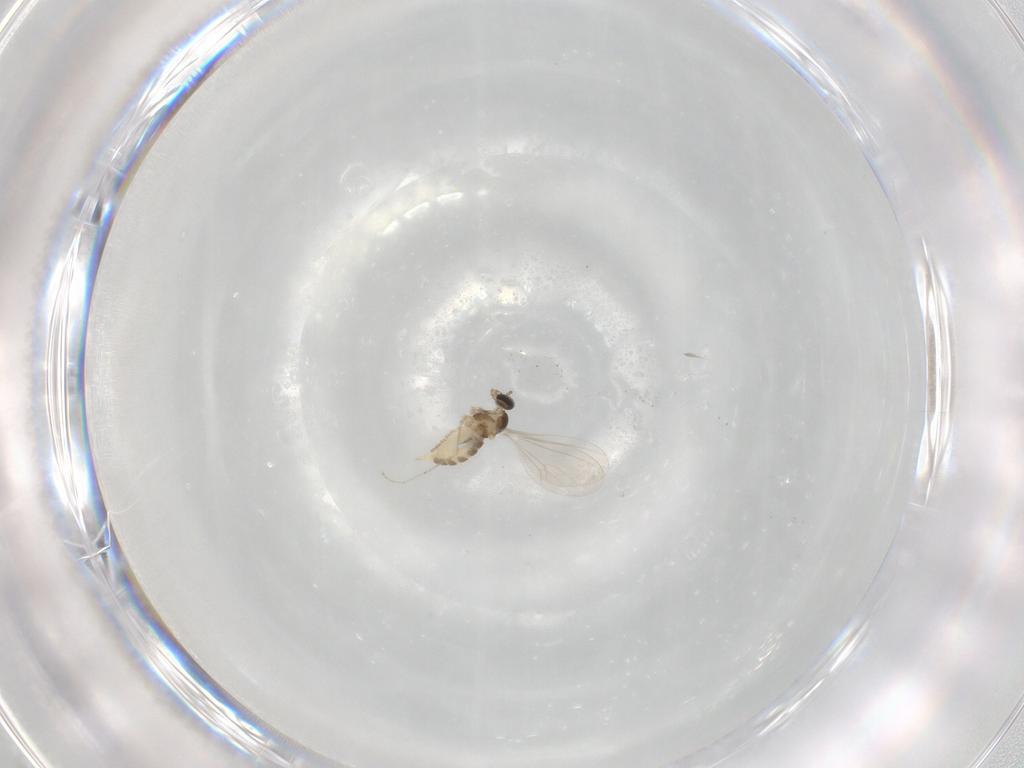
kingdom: Animalia
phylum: Arthropoda
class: Insecta
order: Diptera
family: Cecidomyiidae
